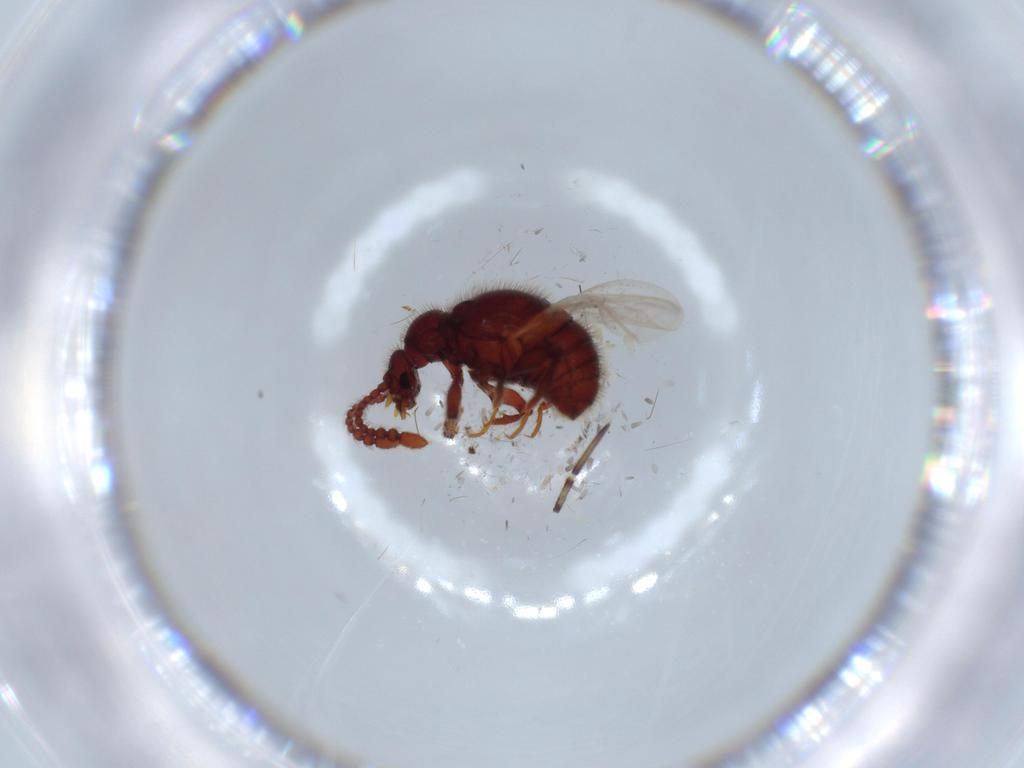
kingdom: Animalia
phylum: Arthropoda
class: Insecta
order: Coleoptera
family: Staphylinidae
